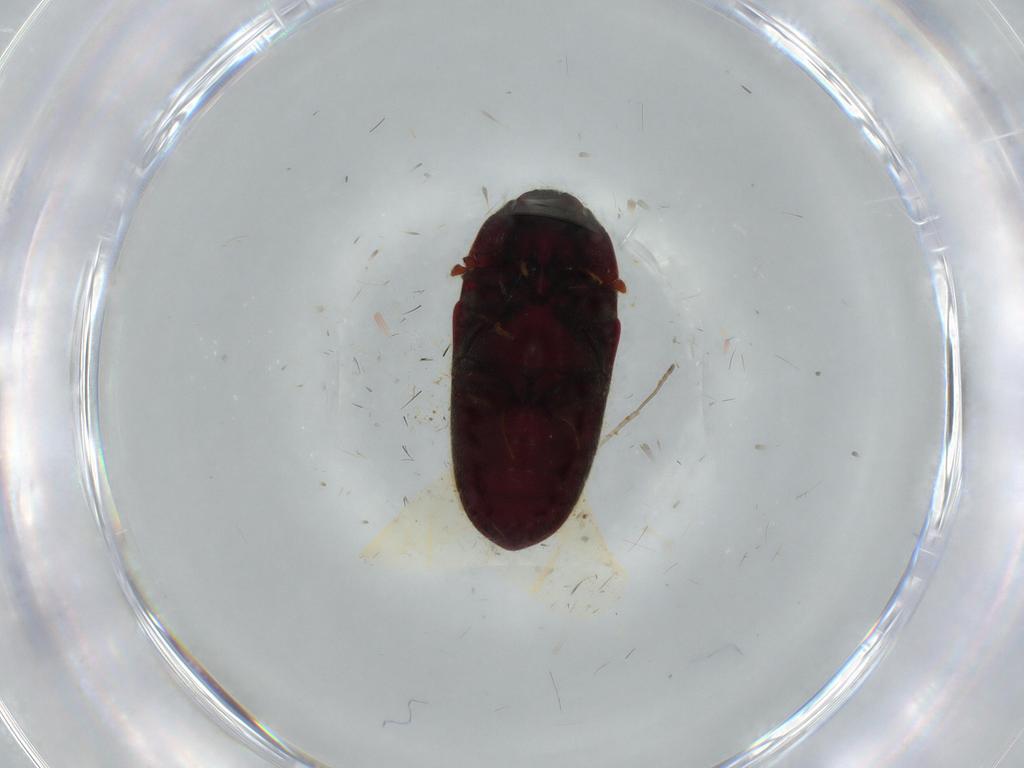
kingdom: Animalia
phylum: Arthropoda
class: Insecta
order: Coleoptera
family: Throscidae
